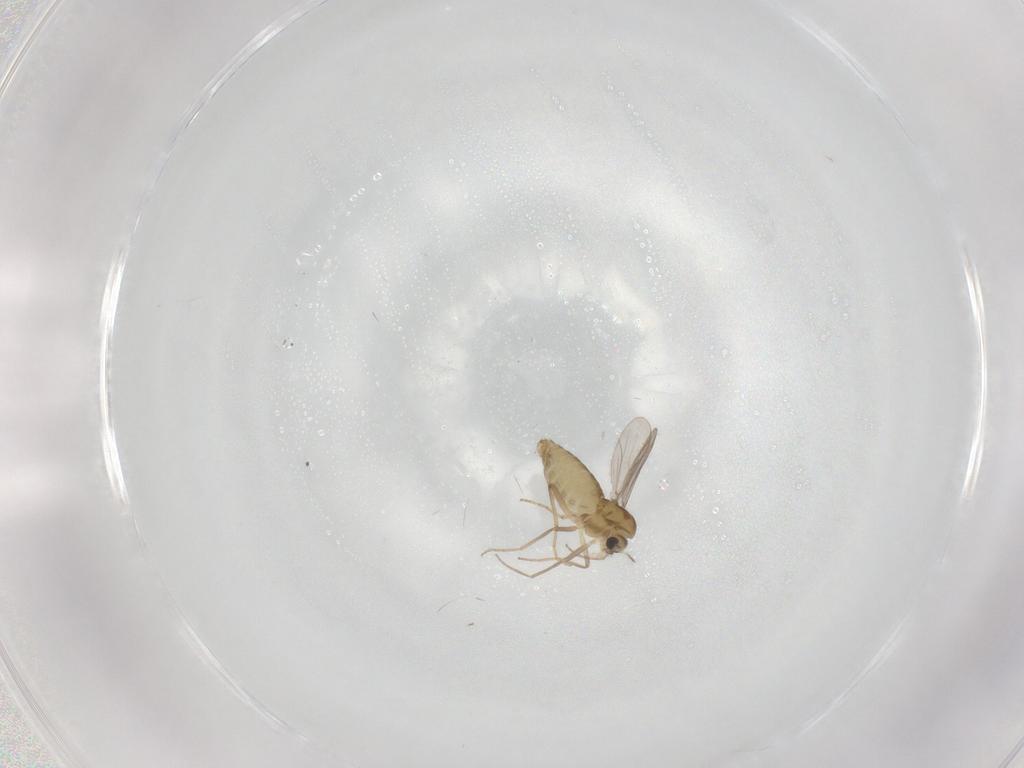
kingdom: Animalia
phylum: Arthropoda
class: Insecta
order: Diptera
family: Chironomidae
